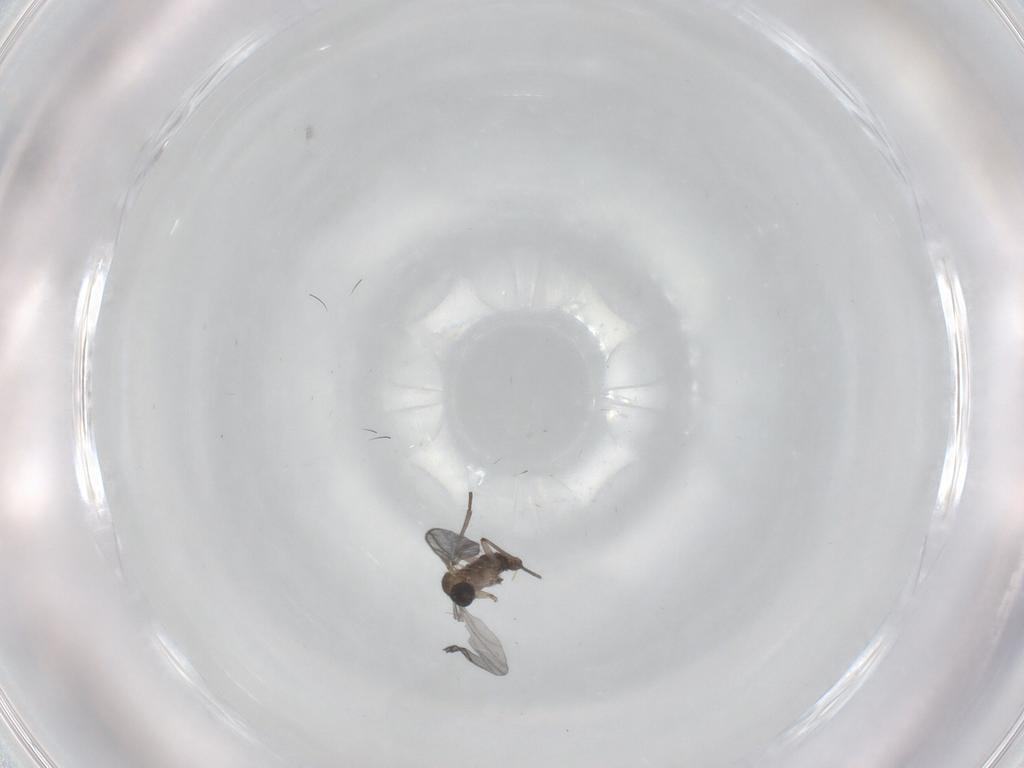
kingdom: Animalia
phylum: Arthropoda
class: Insecta
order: Diptera
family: Sciaridae
